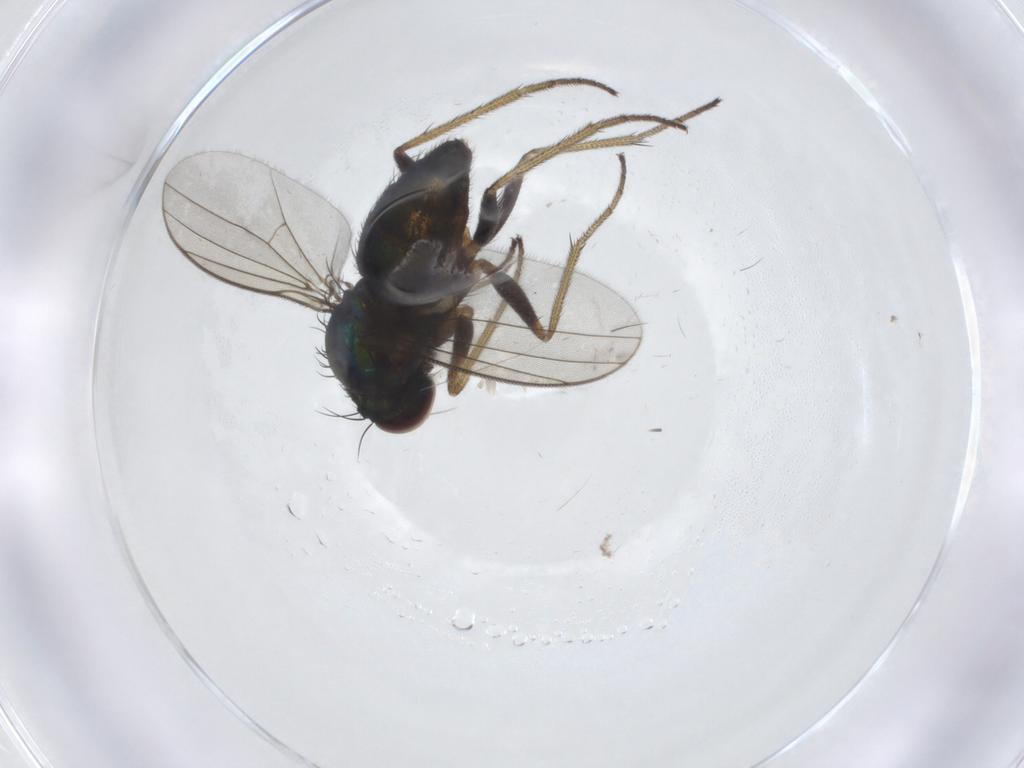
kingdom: Animalia
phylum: Arthropoda
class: Insecta
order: Diptera
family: Dolichopodidae
